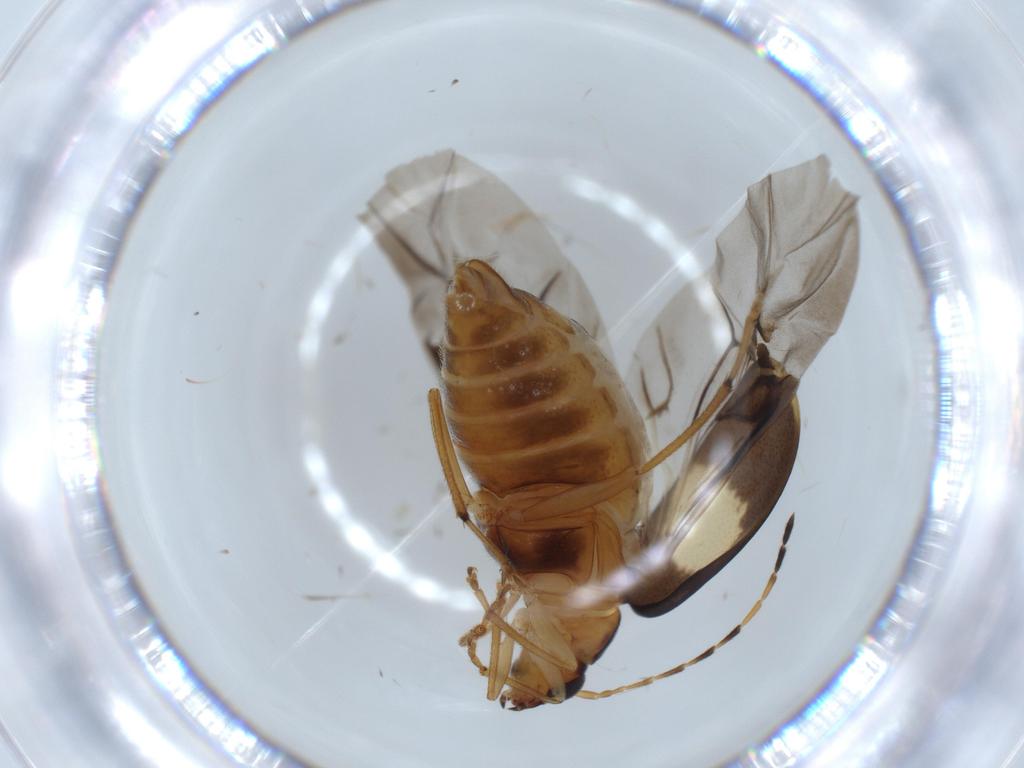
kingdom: Animalia
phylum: Arthropoda
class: Insecta
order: Coleoptera
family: Chrysomelidae
